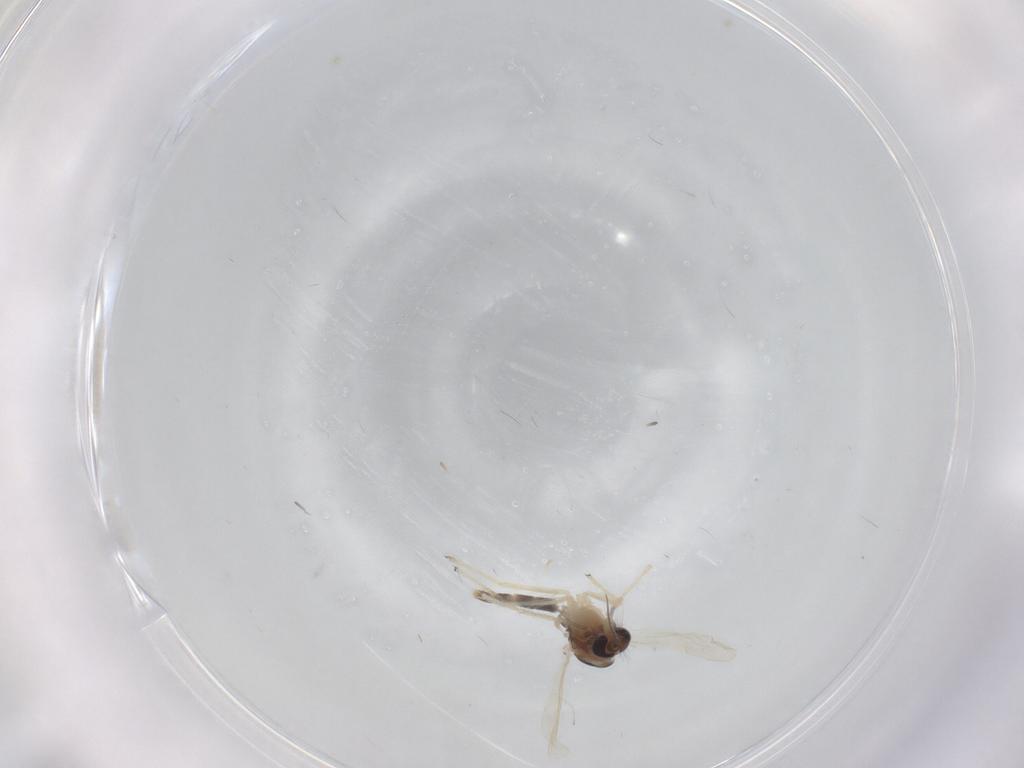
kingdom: Animalia
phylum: Arthropoda
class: Insecta
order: Diptera
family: Chironomidae
